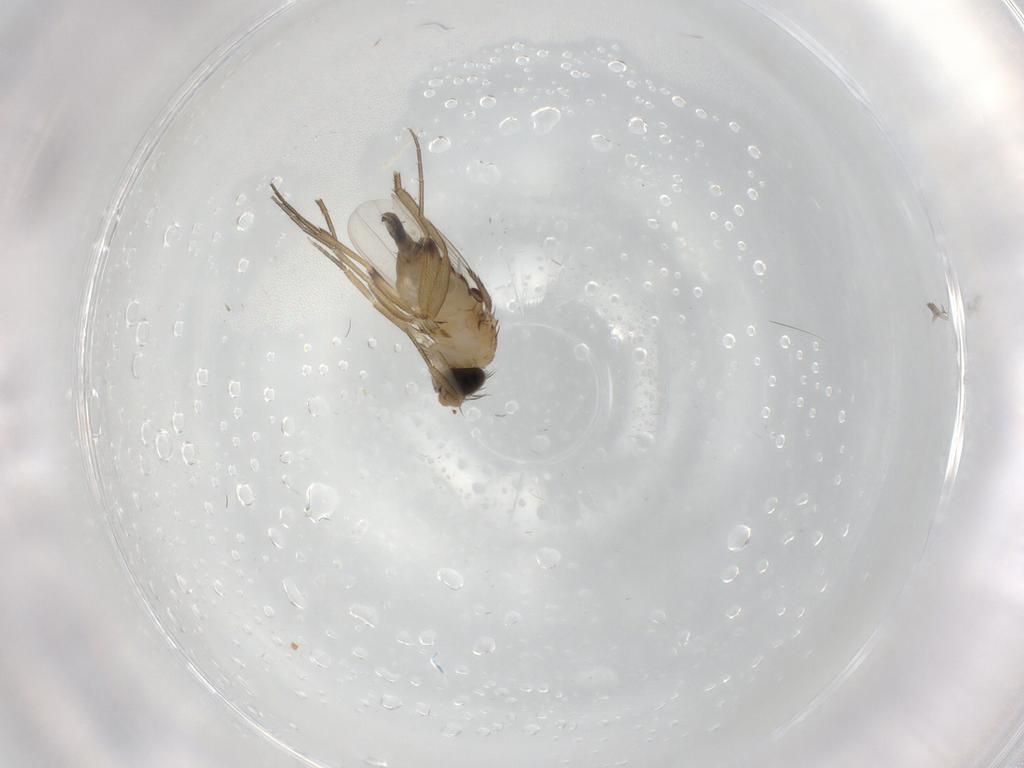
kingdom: Animalia
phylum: Arthropoda
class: Insecta
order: Diptera
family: Phoridae
